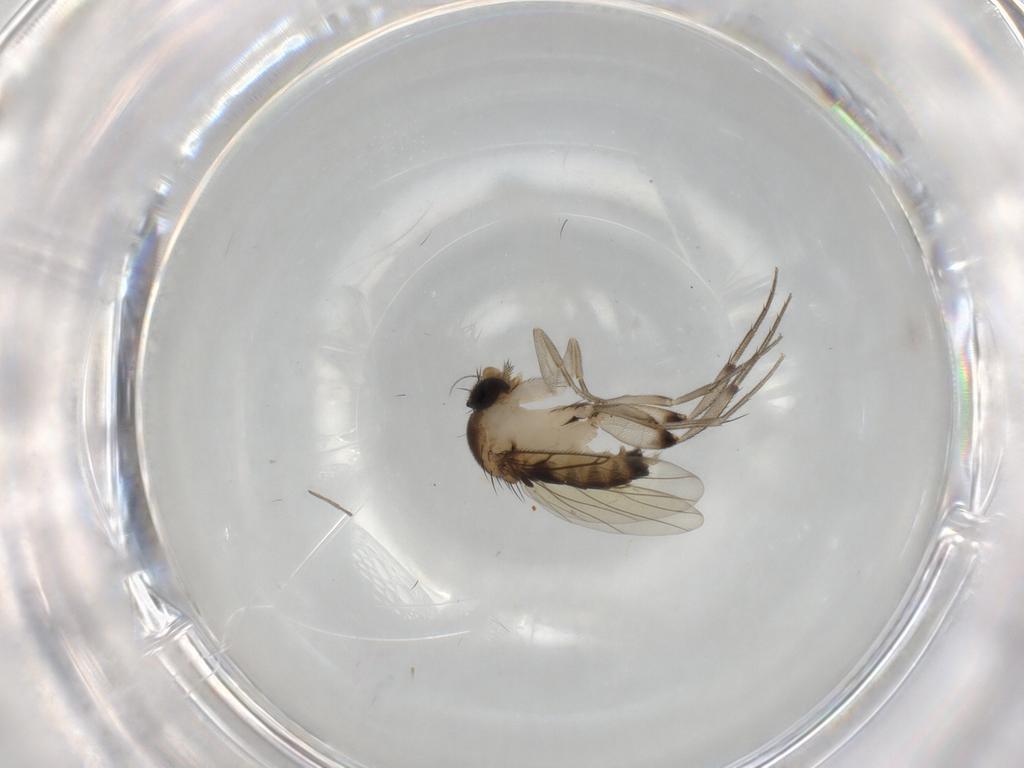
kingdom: Animalia
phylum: Arthropoda
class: Insecta
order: Diptera
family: Phoridae
